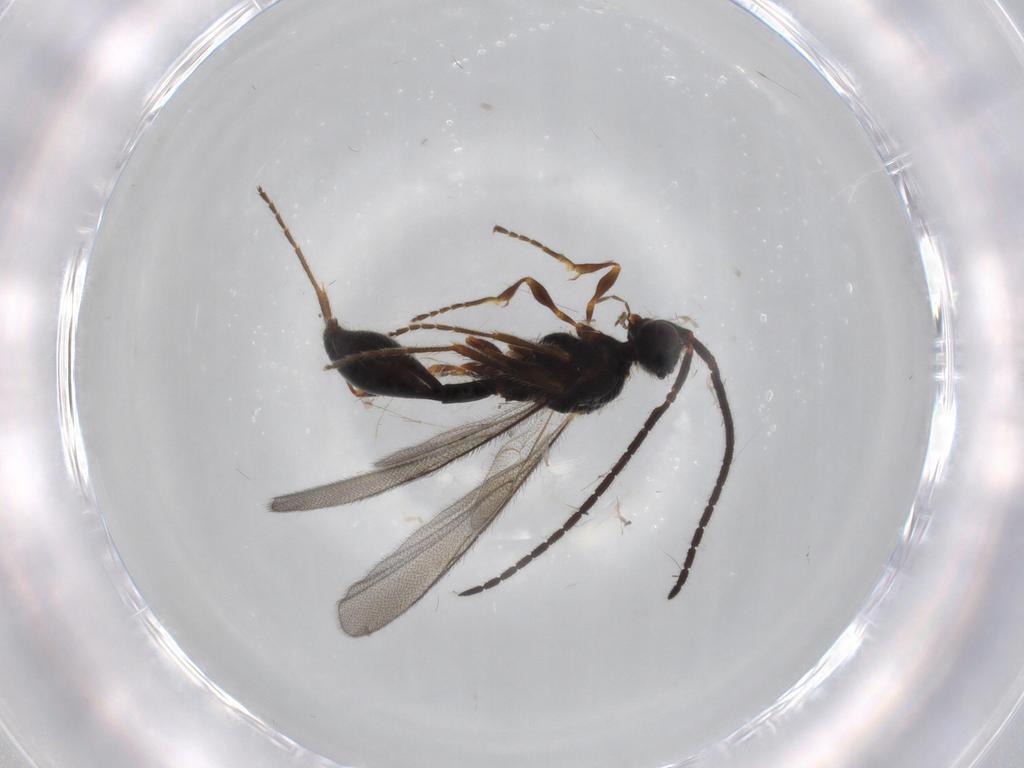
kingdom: Animalia
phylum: Arthropoda
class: Insecta
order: Hymenoptera
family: Diapriidae
